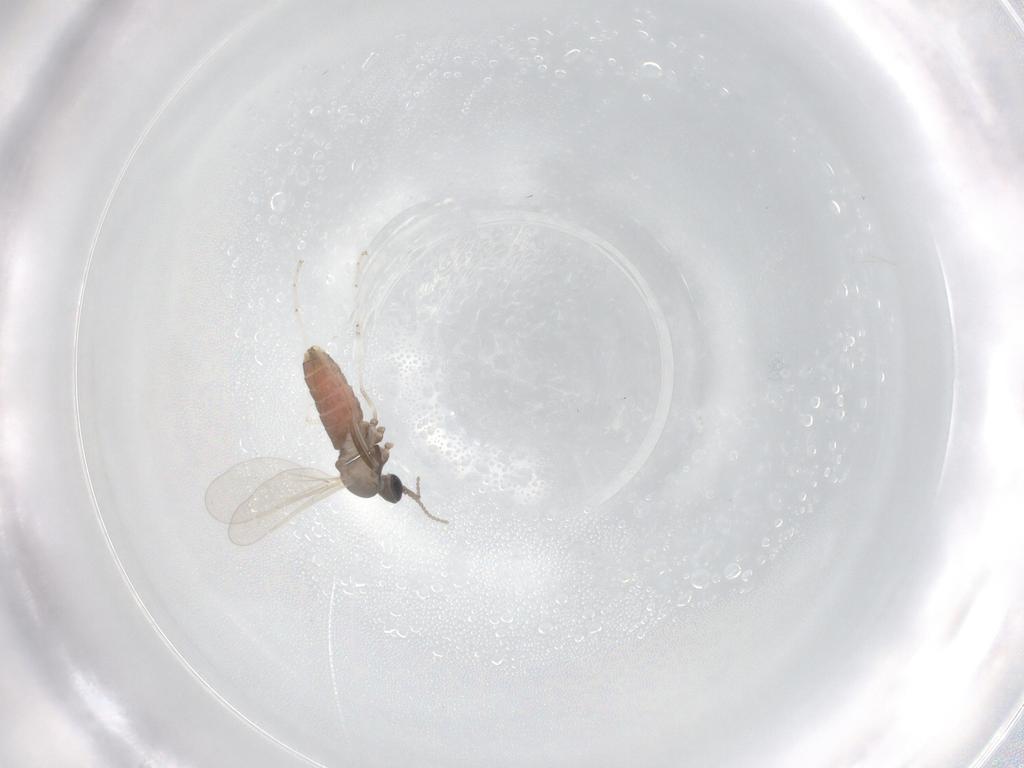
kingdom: Animalia
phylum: Arthropoda
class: Insecta
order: Diptera
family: Cecidomyiidae
